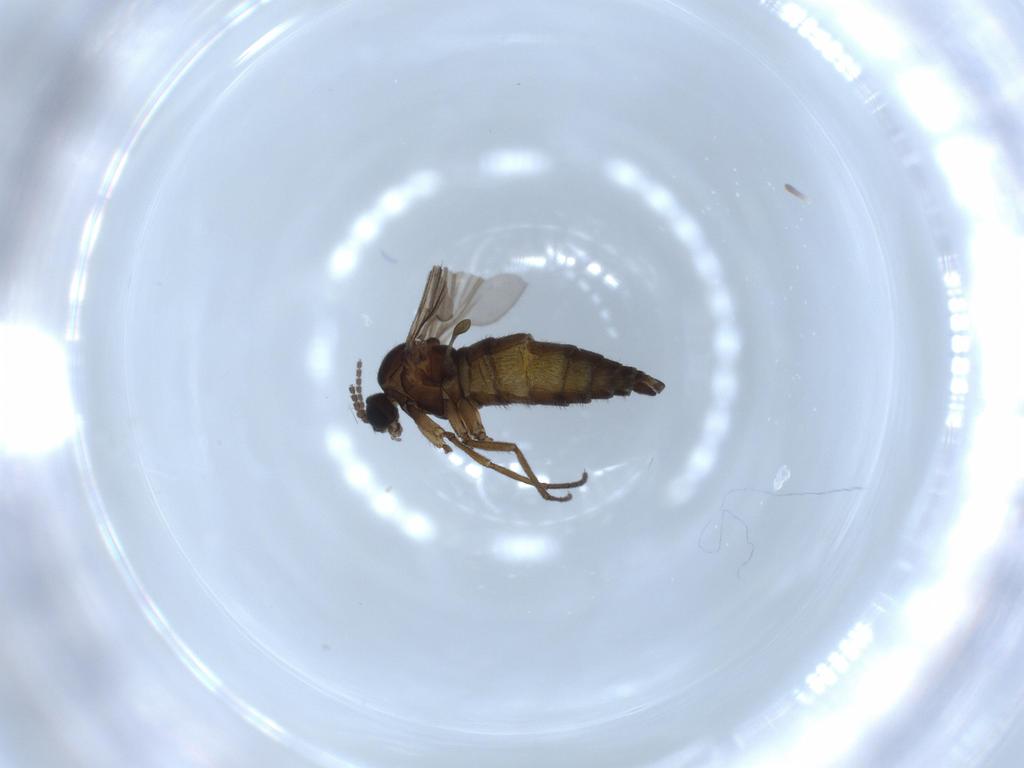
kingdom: Animalia
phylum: Arthropoda
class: Insecta
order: Diptera
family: Sciaridae
